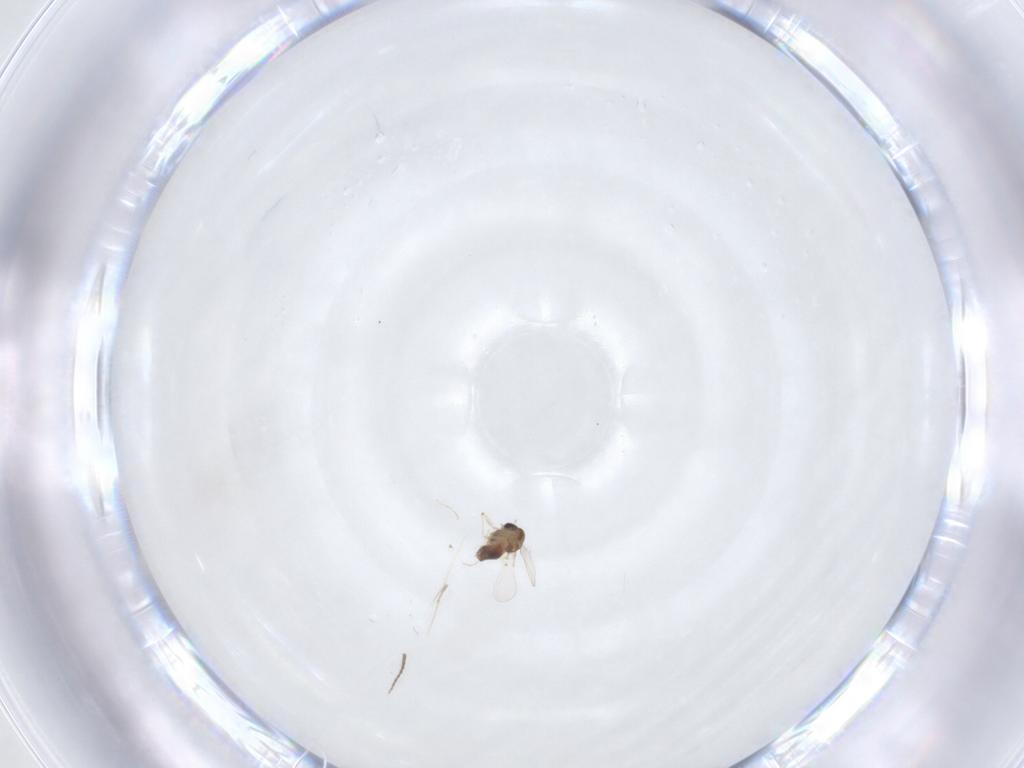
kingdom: Animalia
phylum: Arthropoda
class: Insecta
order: Diptera
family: Chironomidae
